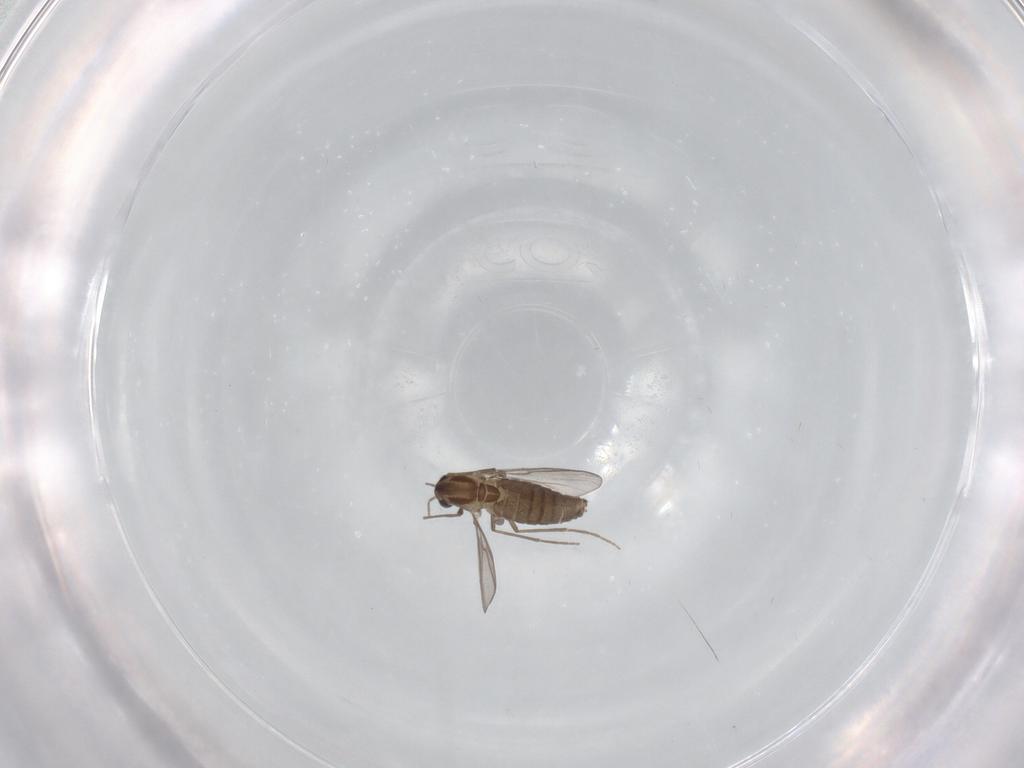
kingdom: Animalia
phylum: Arthropoda
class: Insecta
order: Diptera
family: Chironomidae
